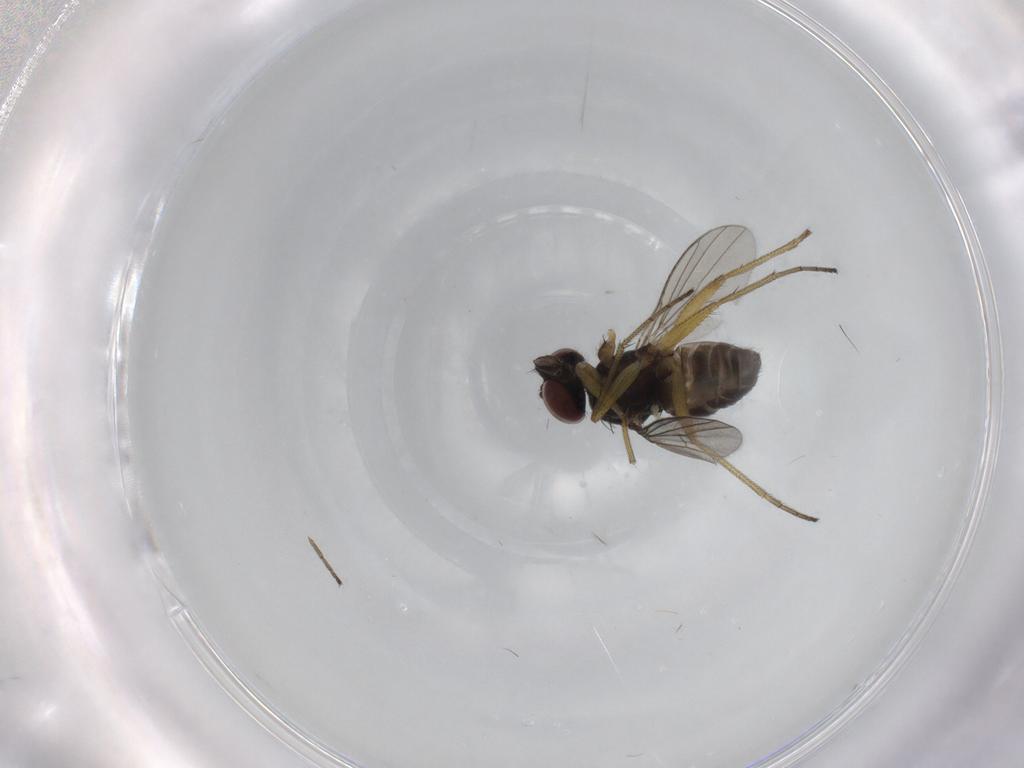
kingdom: Animalia
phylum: Arthropoda
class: Insecta
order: Diptera
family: Dolichopodidae
